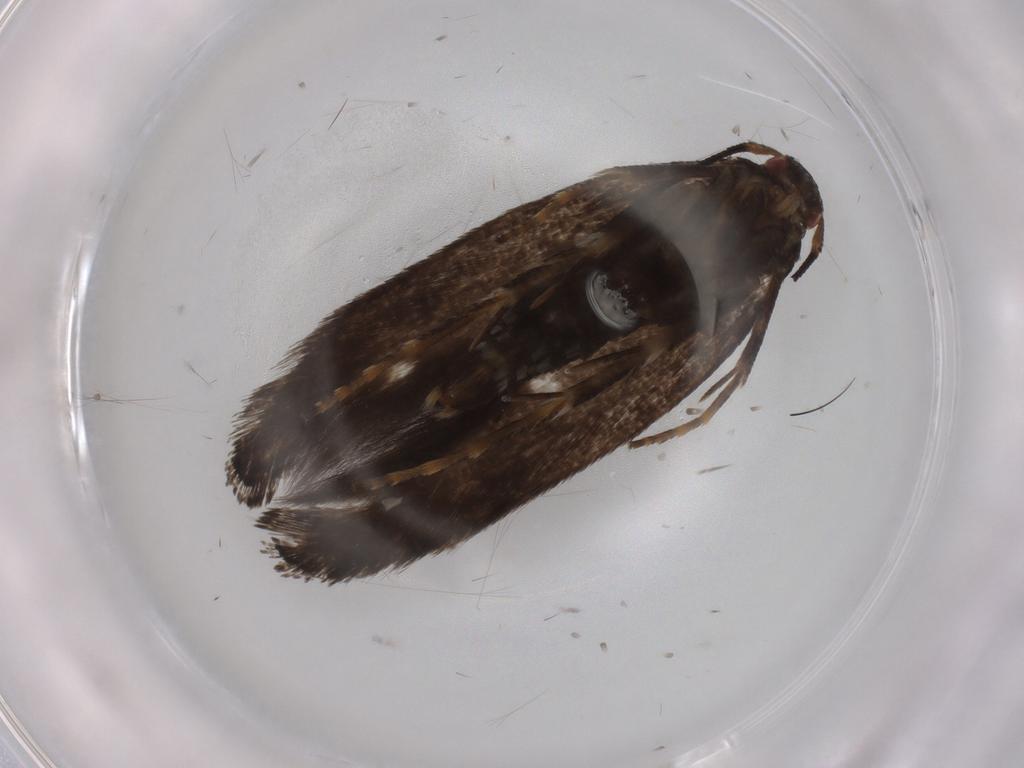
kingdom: Animalia
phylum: Arthropoda
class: Insecta
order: Lepidoptera
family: Momphidae
